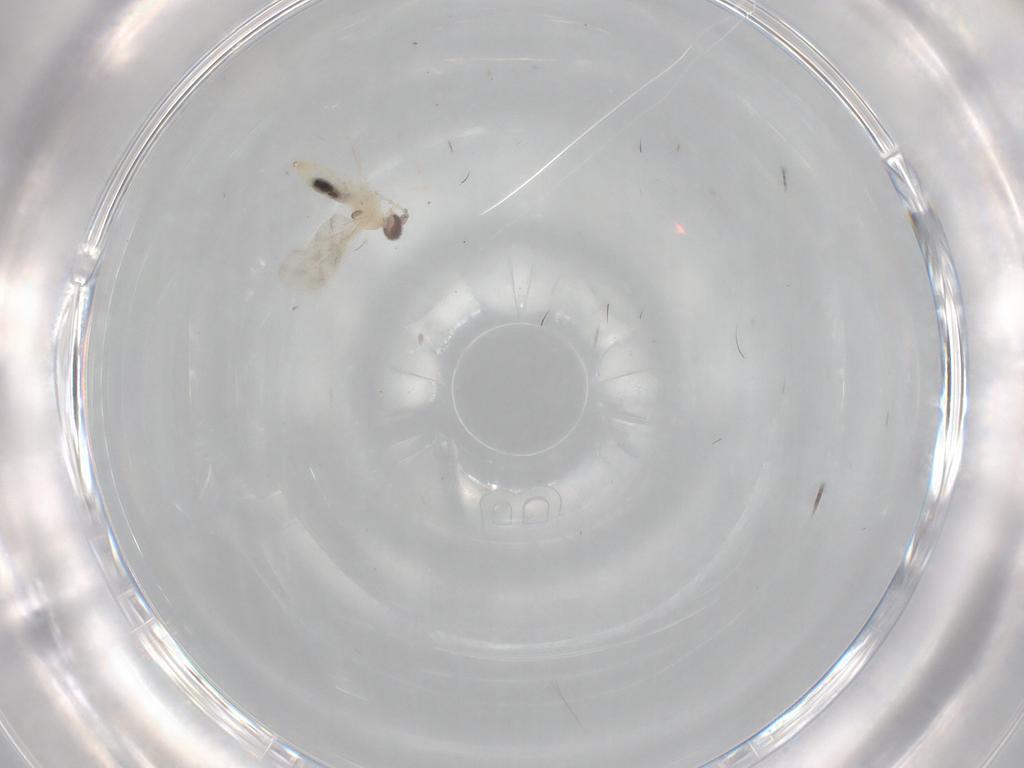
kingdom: Animalia
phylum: Arthropoda
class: Insecta
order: Diptera
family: Cecidomyiidae
